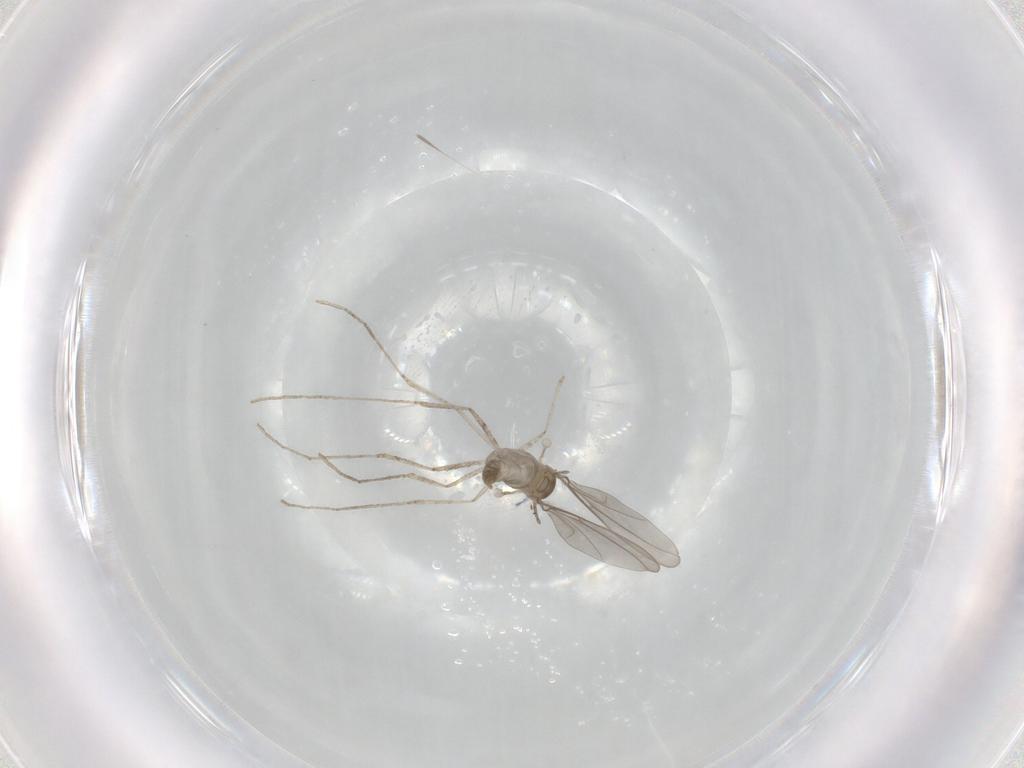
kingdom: Animalia
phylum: Arthropoda
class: Insecta
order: Diptera
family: Cecidomyiidae
